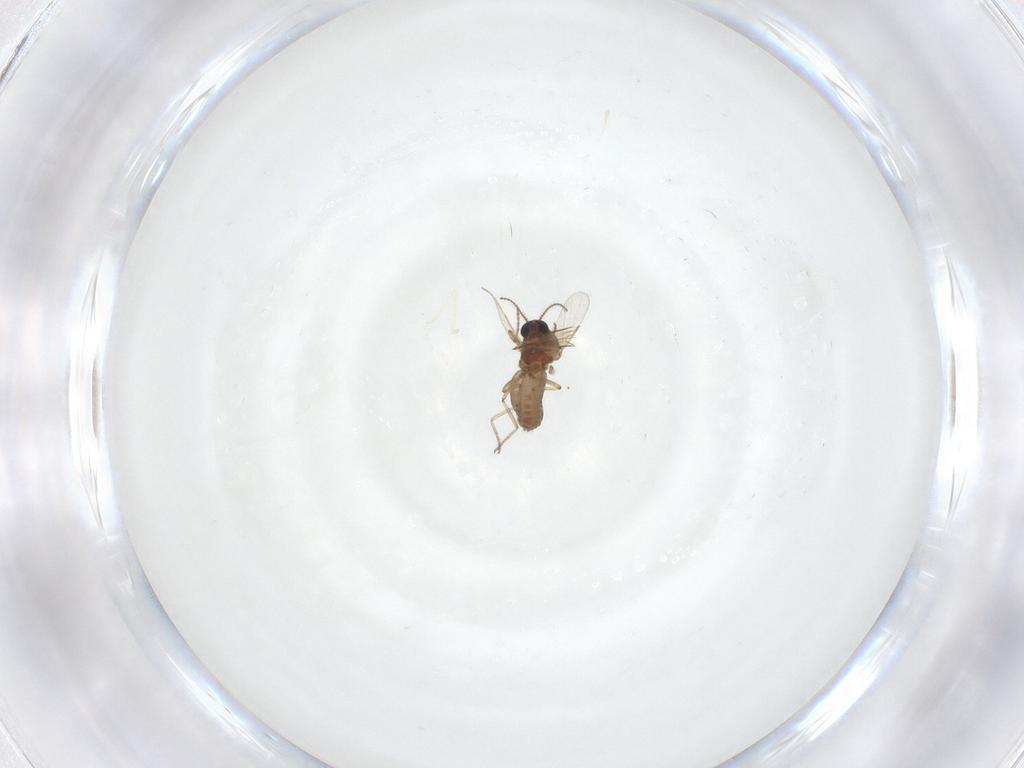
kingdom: Animalia
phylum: Arthropoda
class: Insecta
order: Diptera
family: Ceratopogonidae
